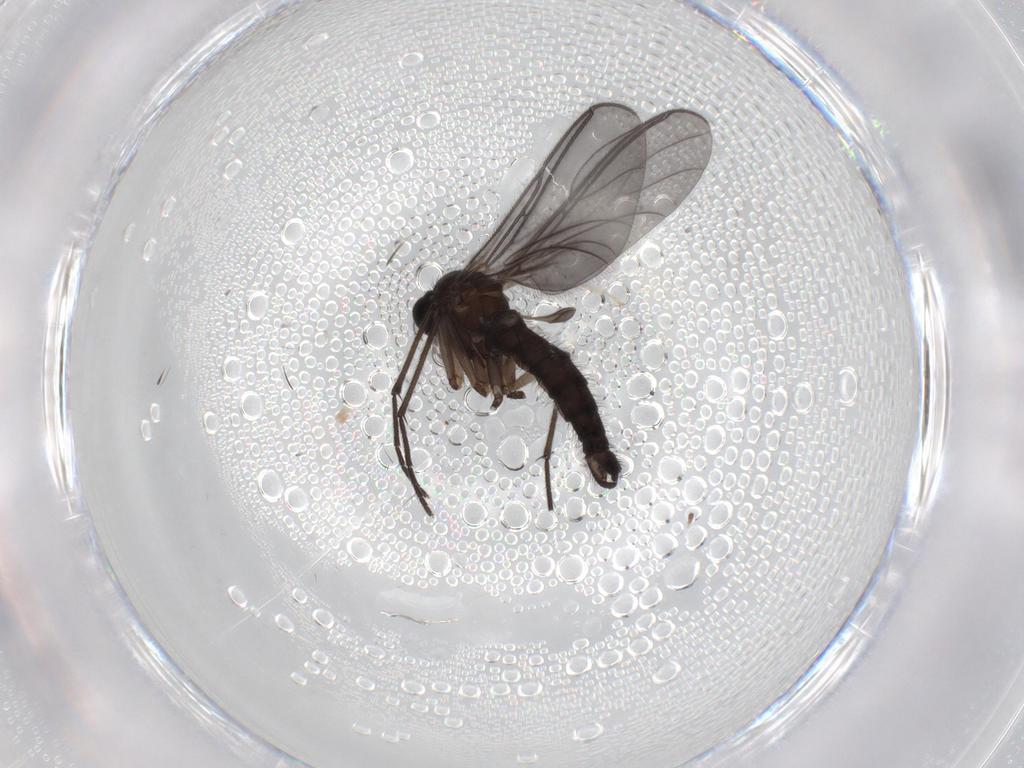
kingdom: Animalia
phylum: Arthropoda
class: Insecta
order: Diptera
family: Sciaridae
